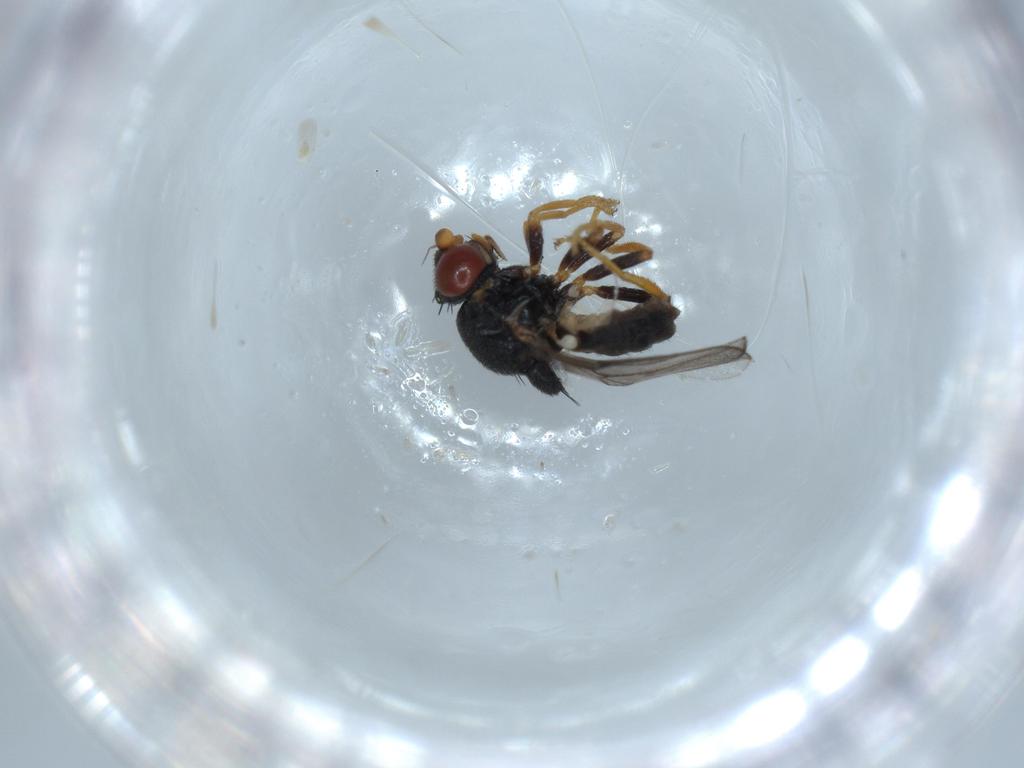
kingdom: Animalia
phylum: Arthropoda
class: Insecta
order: Diptera
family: Chloropidae
